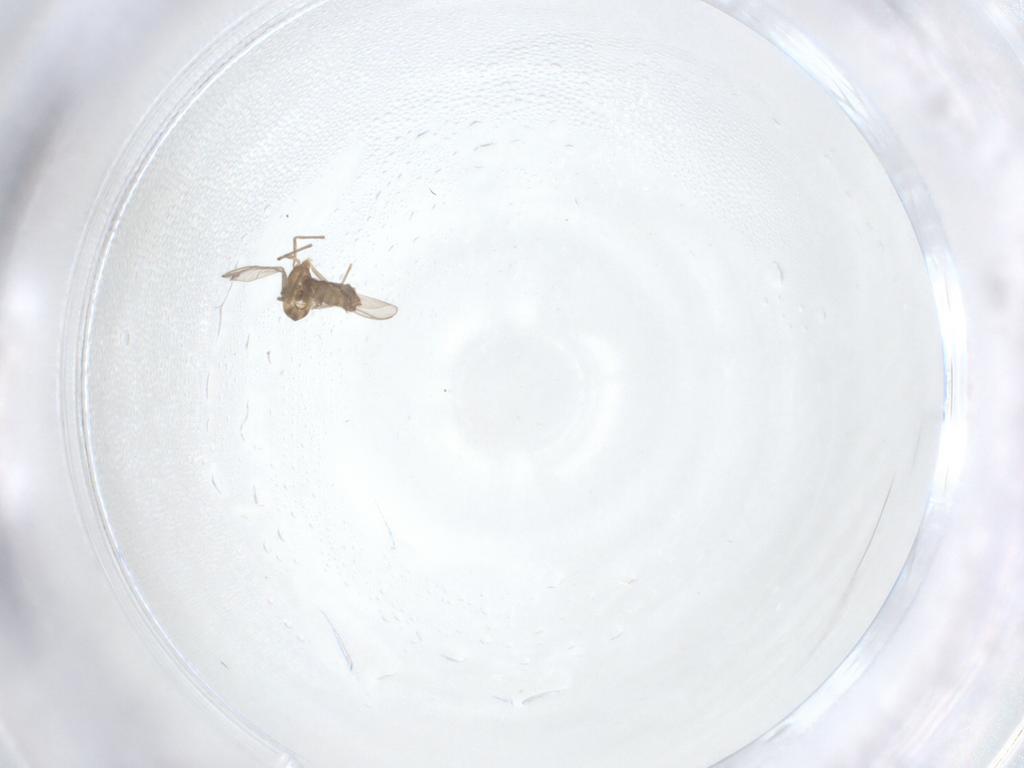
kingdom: Animalia
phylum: Arthropoda
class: Insecta
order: Diptera
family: Chironomidae
